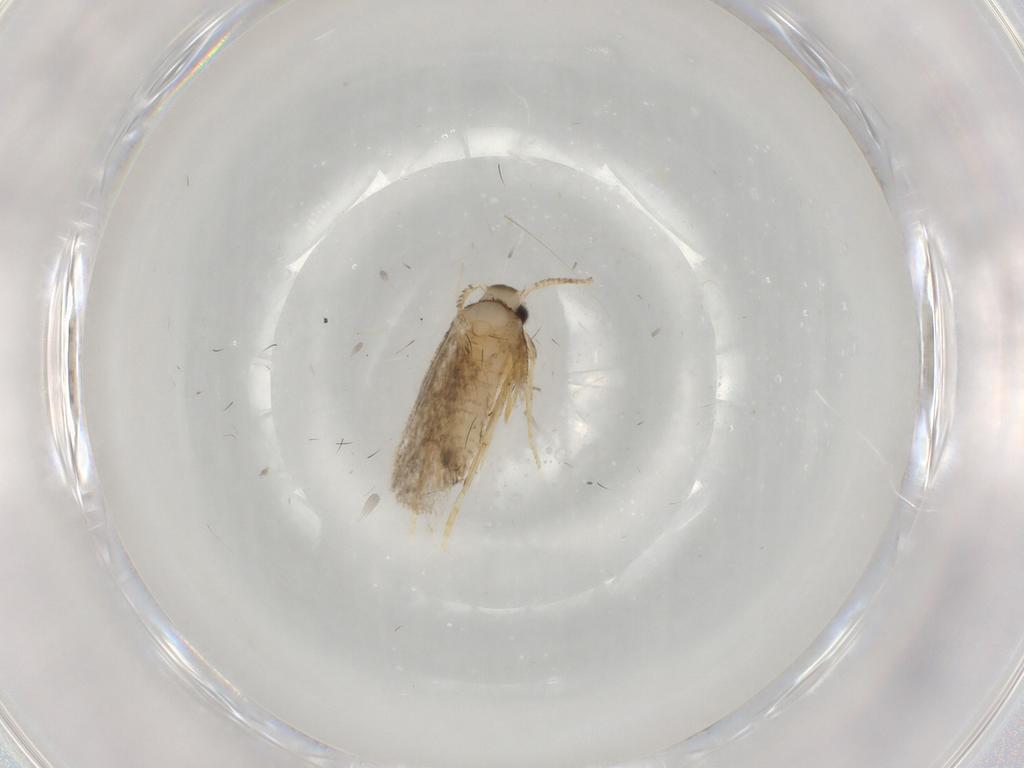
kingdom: Animalia
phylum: Arthropoda
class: Insecta
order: Lepidoptera
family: Psychidae
